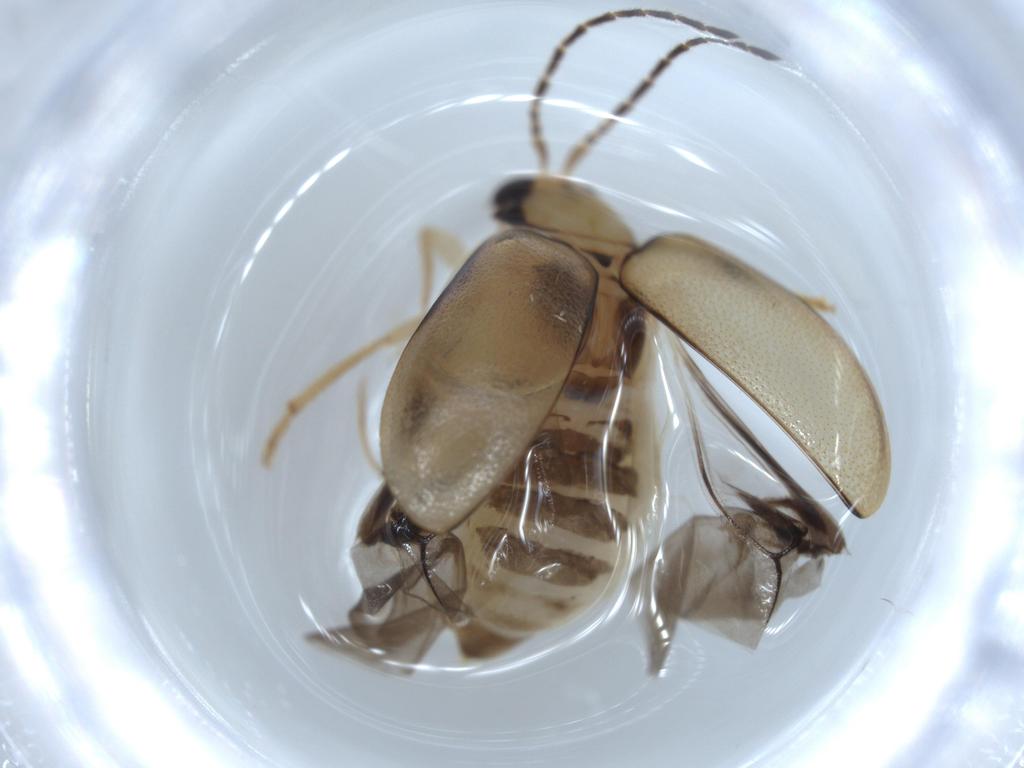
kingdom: Animalia
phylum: Arthropoda
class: Insecta
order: Coleoptera
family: Chrysomelidae
